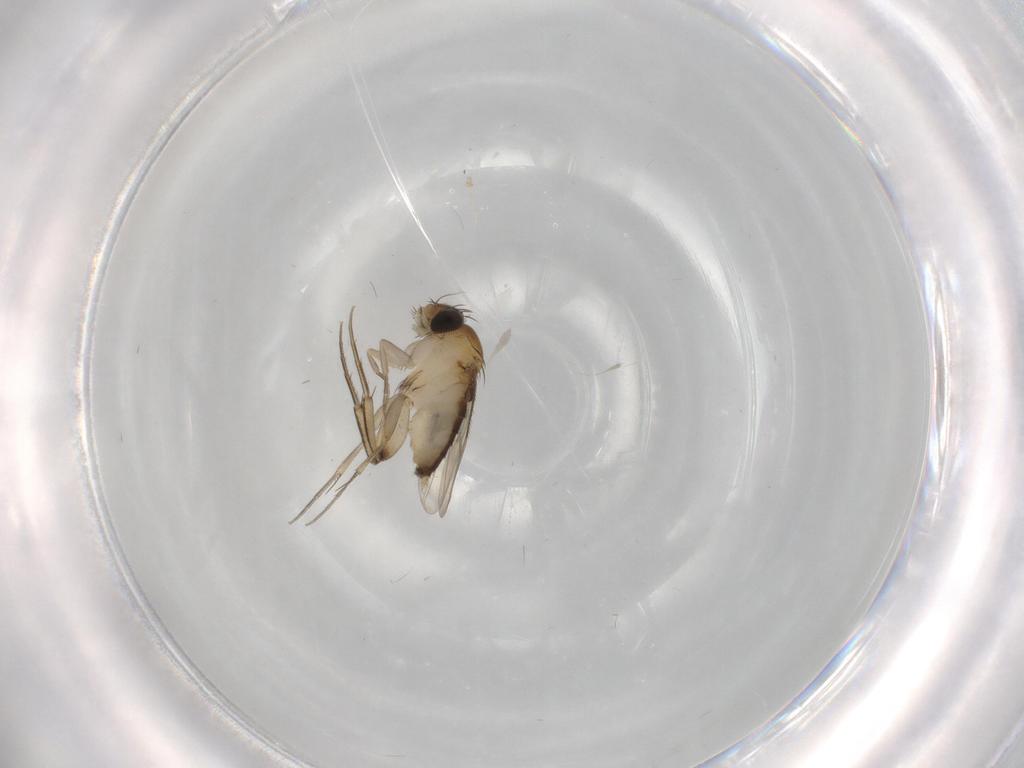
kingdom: Animalia
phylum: Arthropoda
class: Insecta
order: Diptera
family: Phoridae
